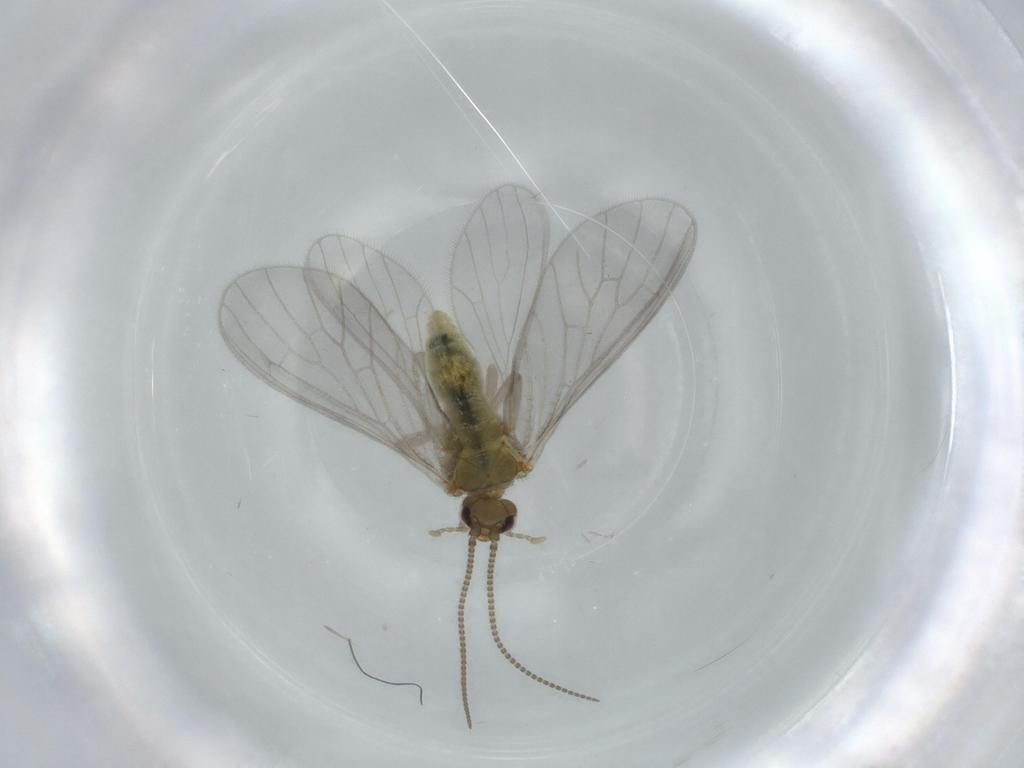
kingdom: Animalia
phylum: Arthropoda
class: Insecta
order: Neuroptera
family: Coniopterygidae
